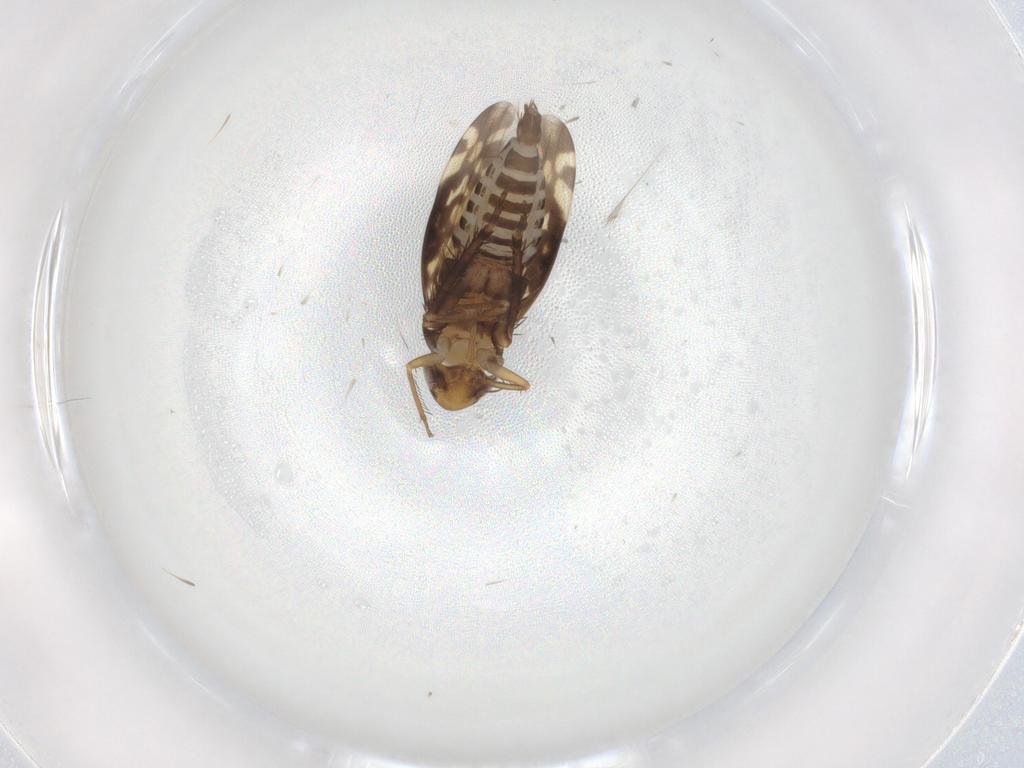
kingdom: Animalia
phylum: Arthropoda
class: Insecta
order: Hemiptera
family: Cicadellidae
